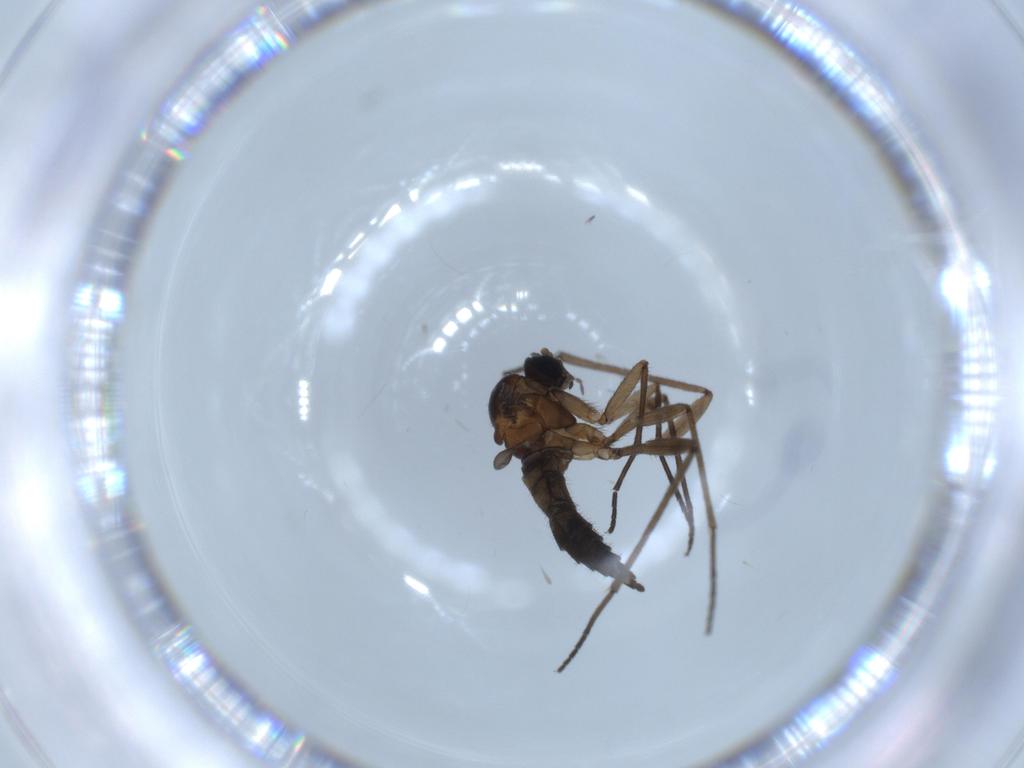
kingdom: Animalia
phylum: Arthropoda
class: Insecta
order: Diptera
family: Sciaridae
